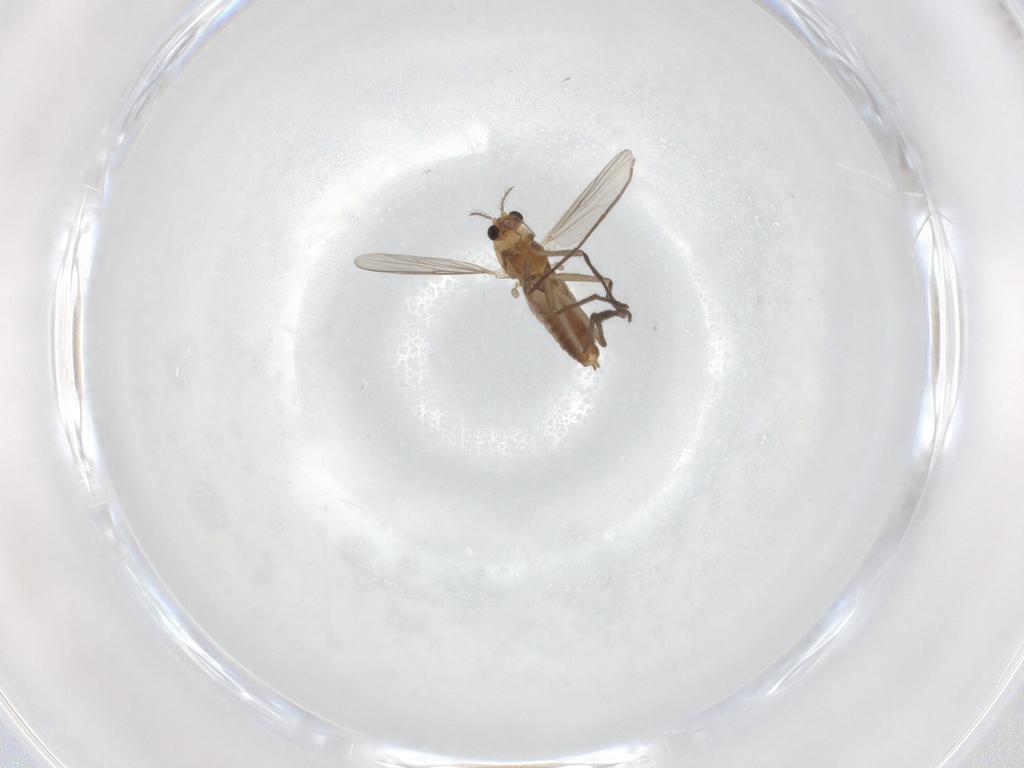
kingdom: Animalia
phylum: Arthropoda
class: Insecta
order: Diptera
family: Chironomidae
